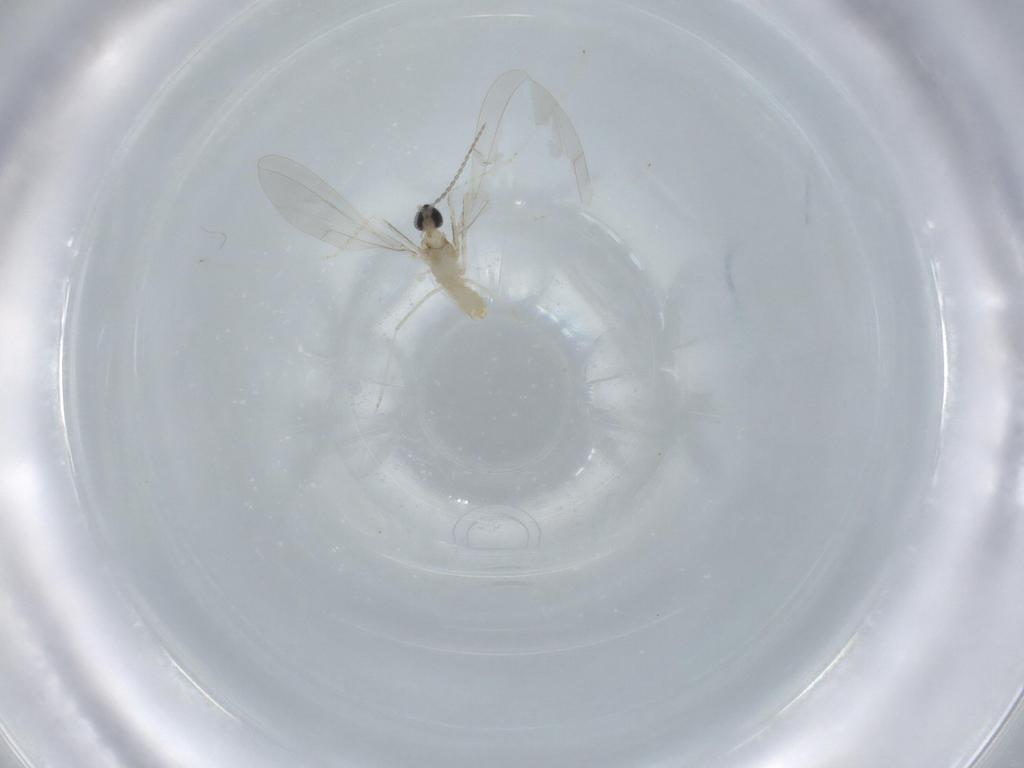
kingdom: Animalia
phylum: Arthropoda
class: Insecta
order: Diptera
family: Cecidomyiidae
